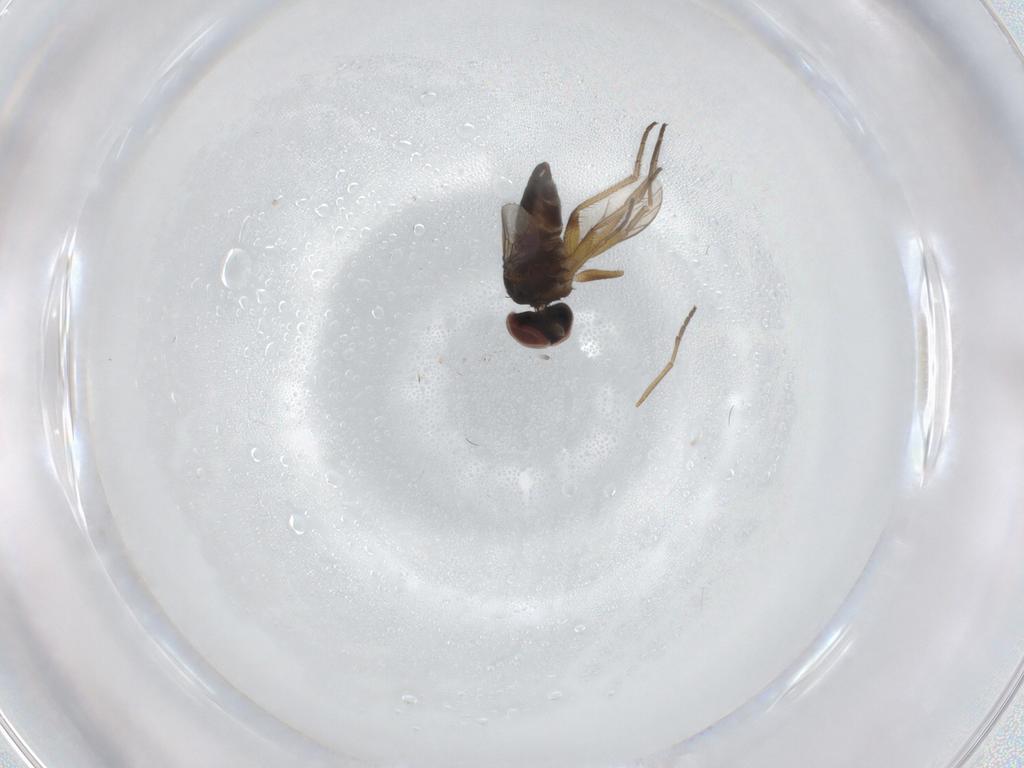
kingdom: Animalia
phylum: Arthropoda
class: Insecta
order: Diptera
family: Dolichopodidae
